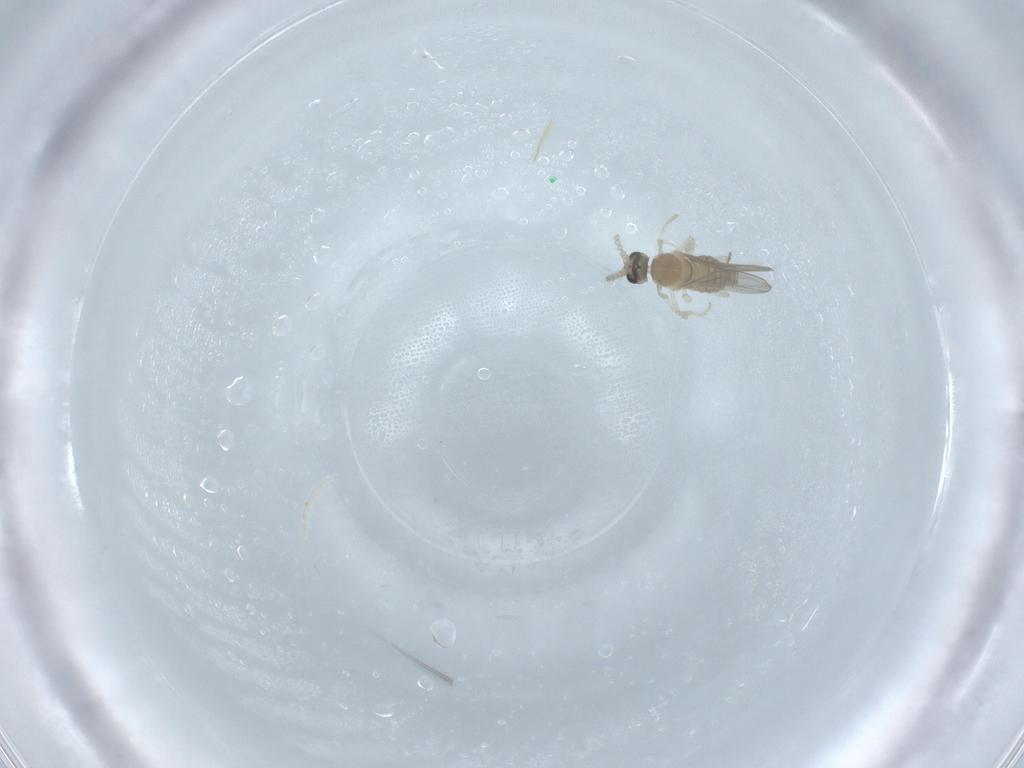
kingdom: Animalia
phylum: Arthropoda
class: Insecta
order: Diptera
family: Cecidomyiidae
